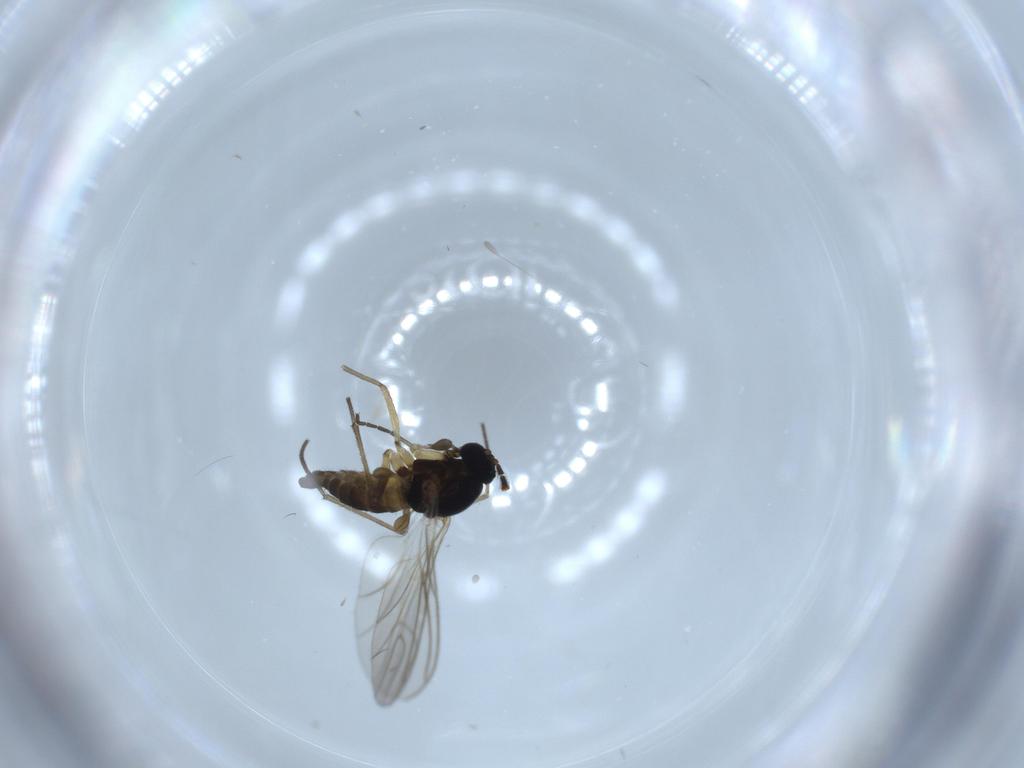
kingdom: Animalia
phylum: Arthropoda
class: Insecta
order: Diptera
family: Sciaridae
